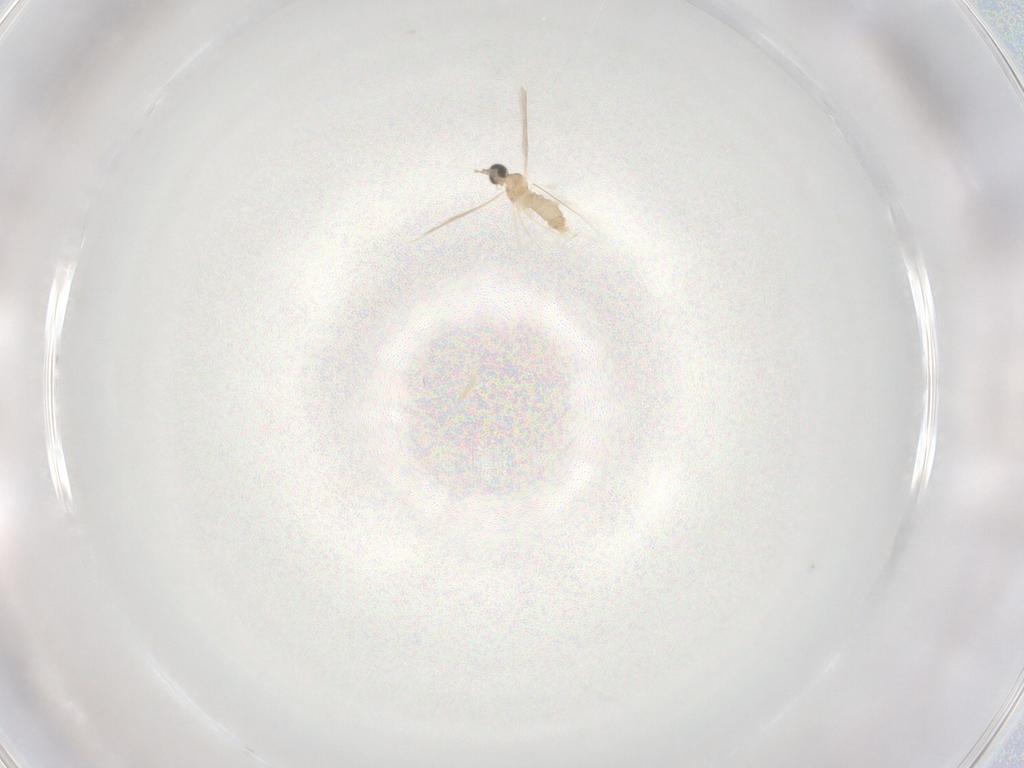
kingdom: Animalia
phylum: Arthropoda
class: Insecta
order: Diptera
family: Cecidomyiidae
